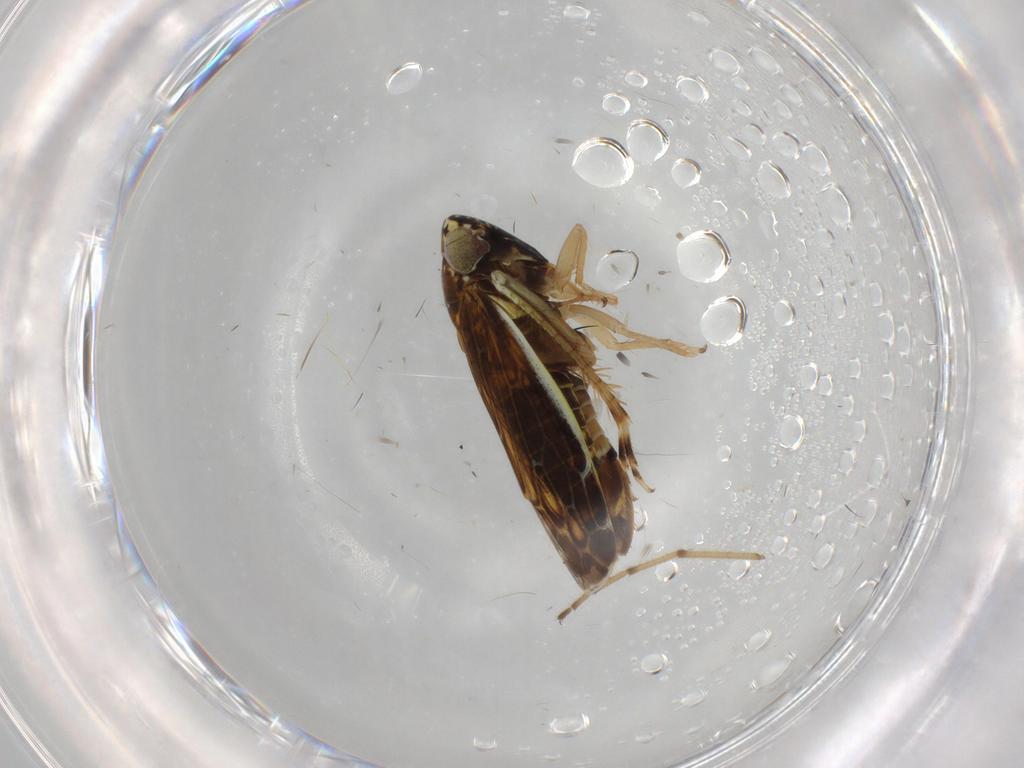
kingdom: Animalia
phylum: Arthropoda
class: Insecta
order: Hemiptera
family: Cicadellidae
